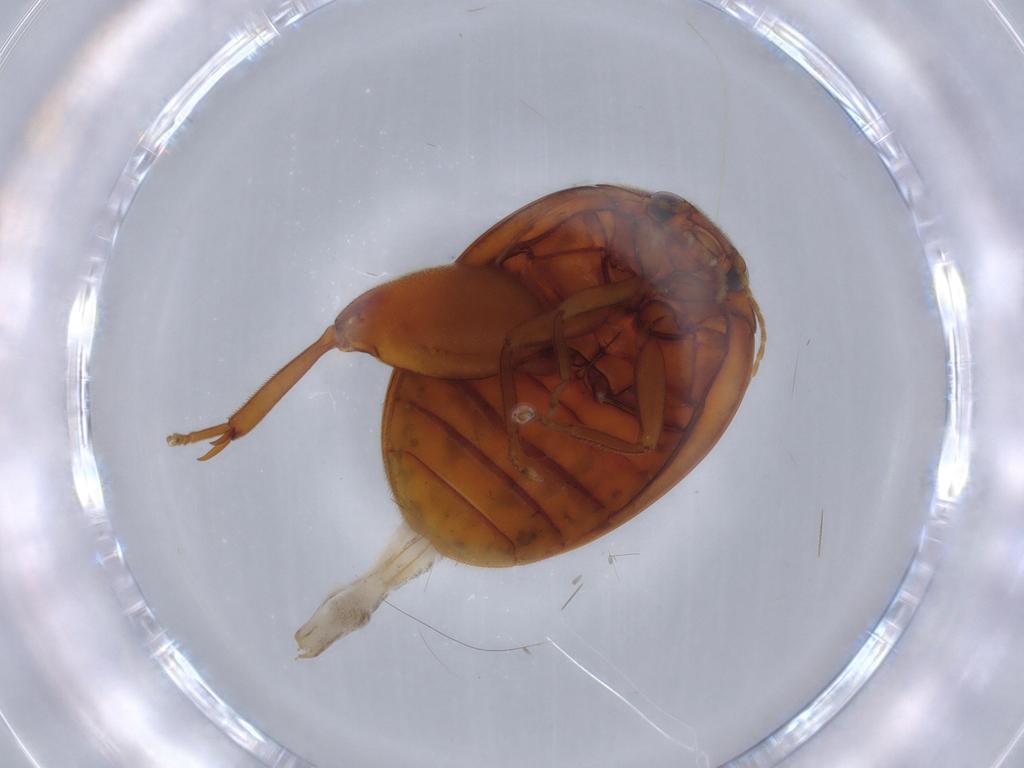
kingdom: Animalia
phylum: Arthropoda
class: Insecta
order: Coleoptera
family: Scirtidae
